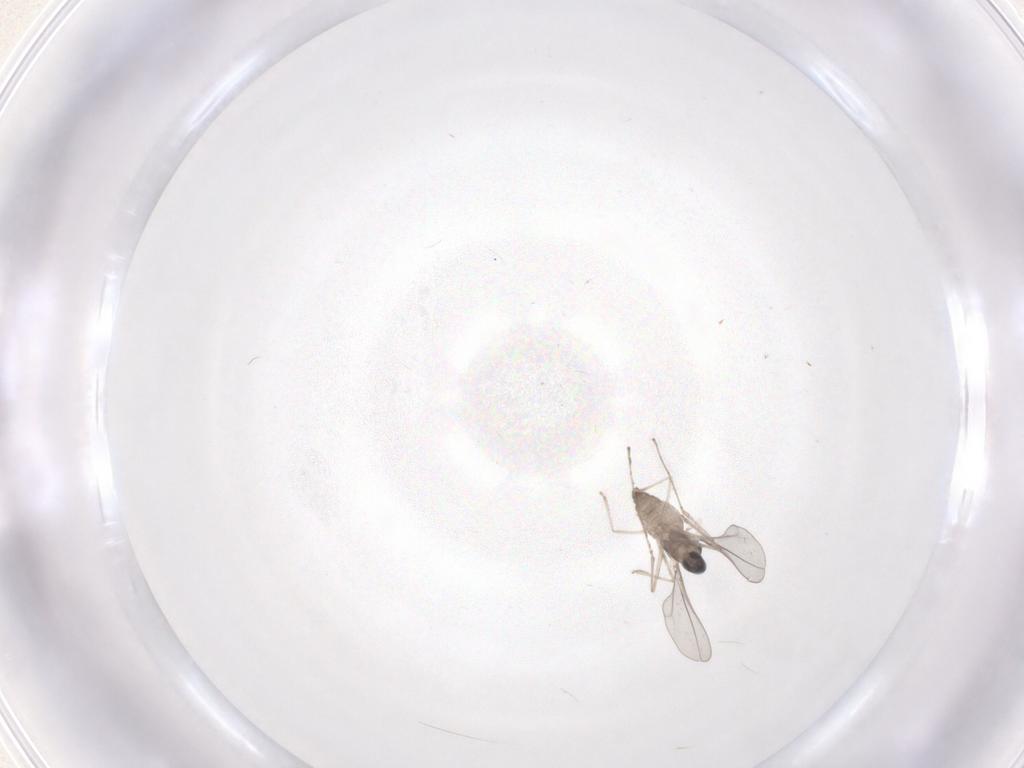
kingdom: Animalia
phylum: Arthropoda
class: Insecta
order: Diptera
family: Cecidomyiidae
